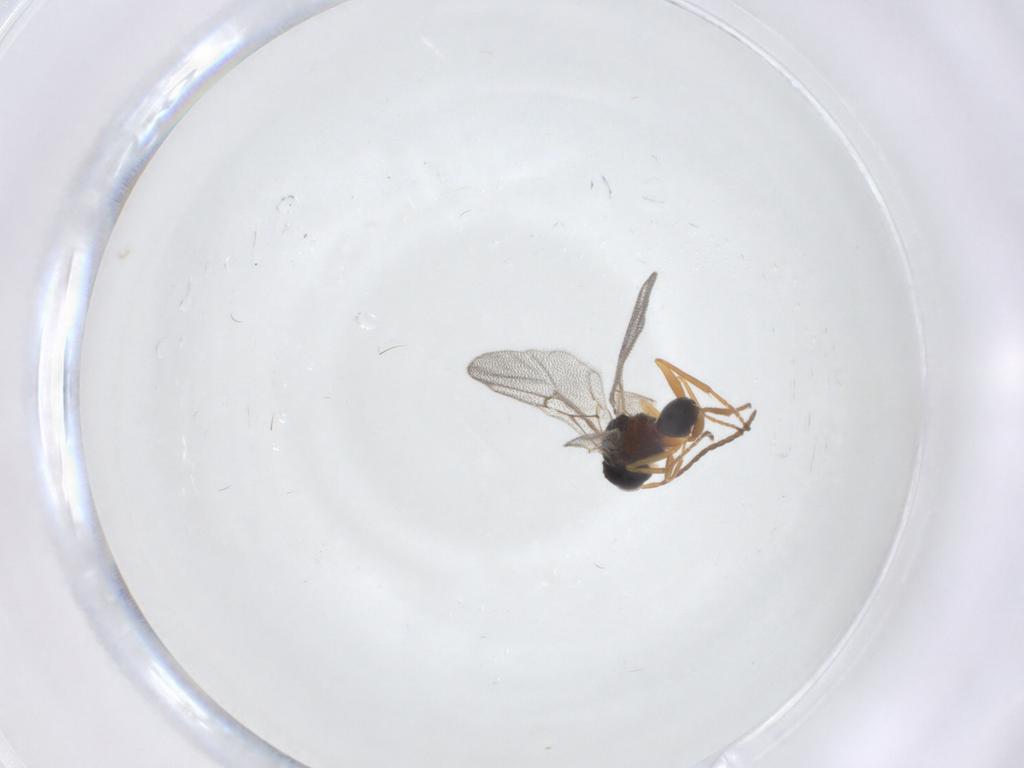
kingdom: Animalia
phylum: Arthropoda
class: Insecta
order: Hymenoptera
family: Cynipidae
